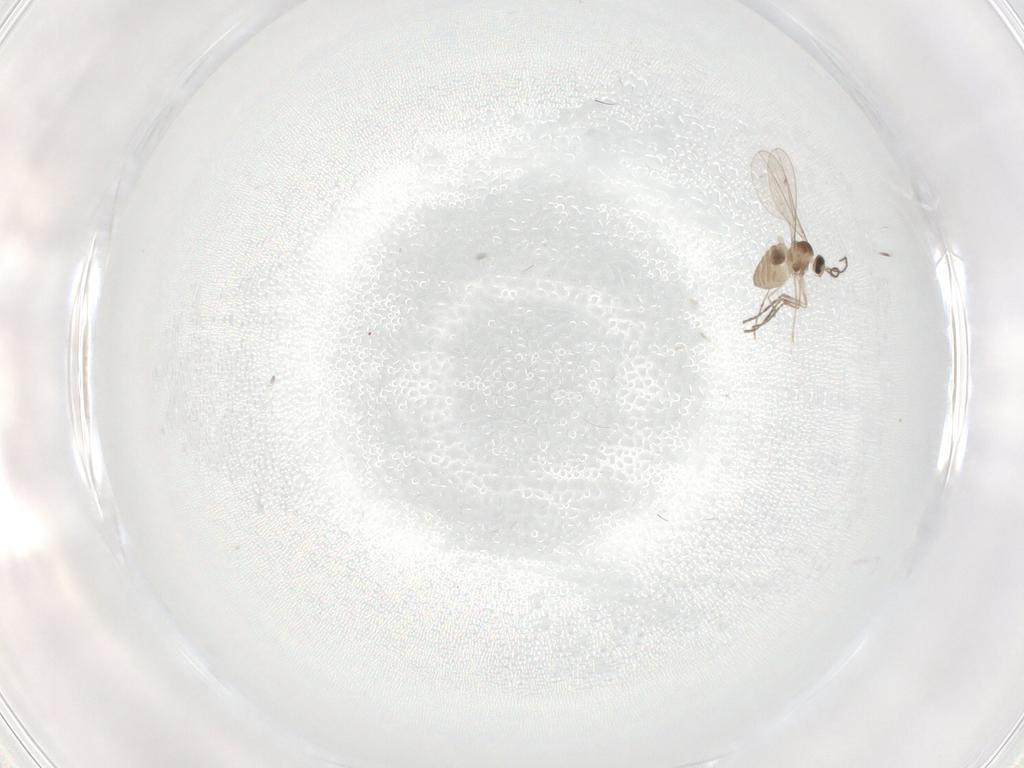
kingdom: Animalia
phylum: Arthropoda
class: Insecta
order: Diptera
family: Cecidomyiidae
